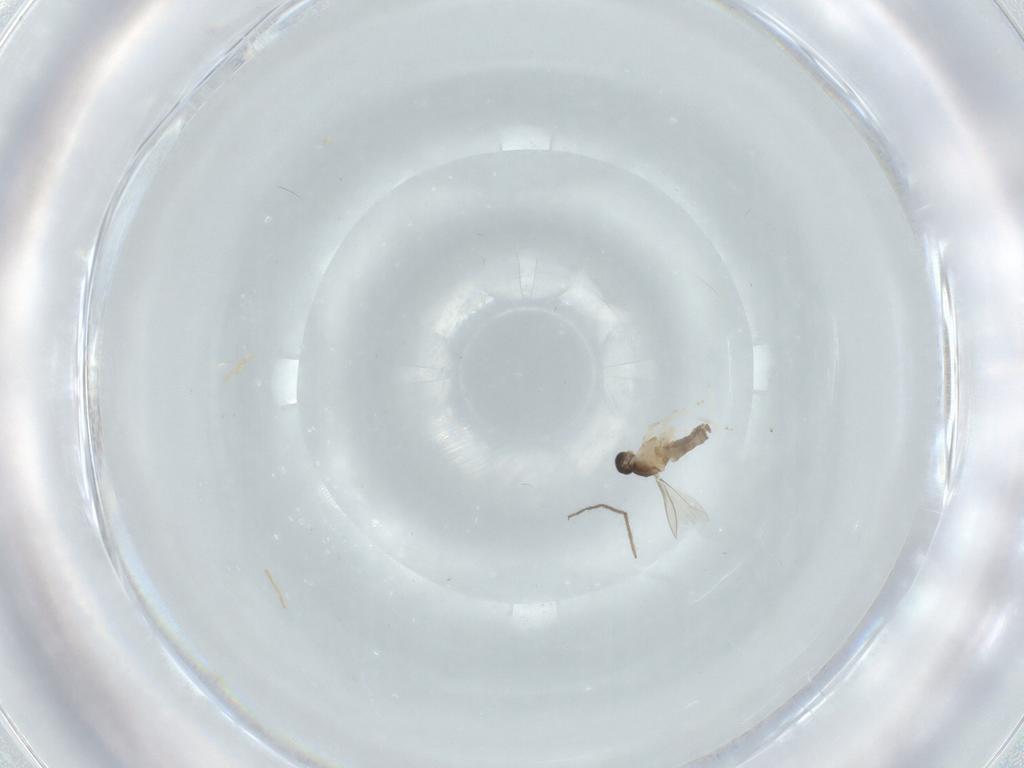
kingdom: Animalia
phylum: Arthropoda
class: Insecta
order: Diptera
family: Cecidomyiidae
